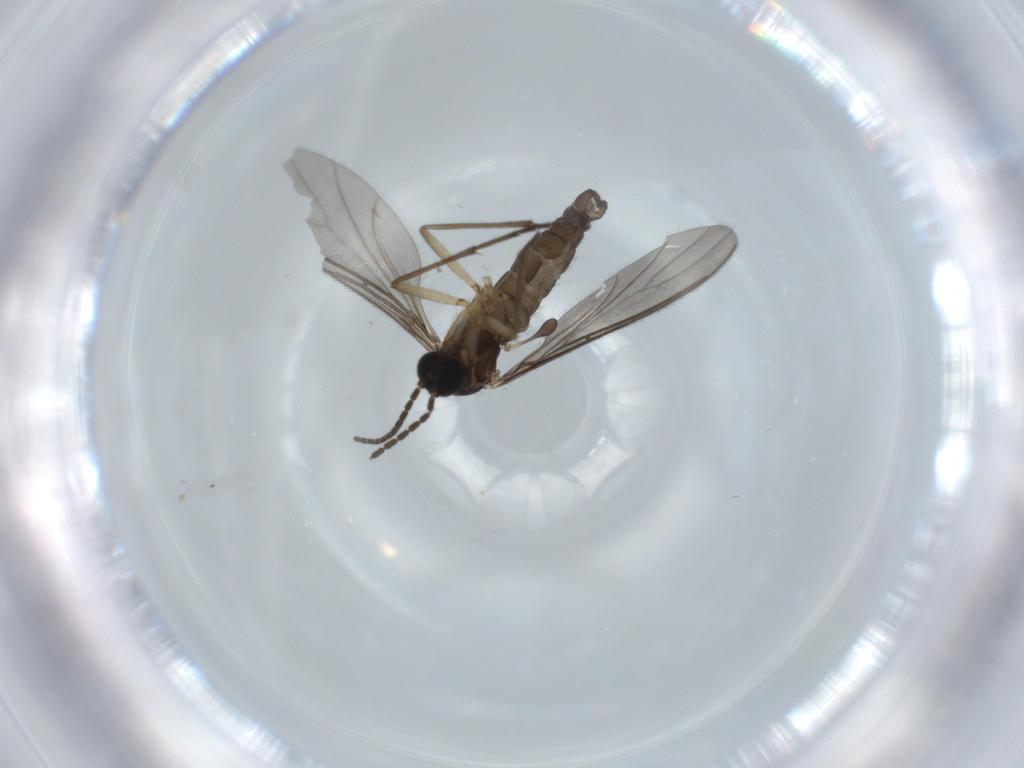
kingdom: Animalia
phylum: Arthropoda
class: Insecta
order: Diptera
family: Sciaridae
